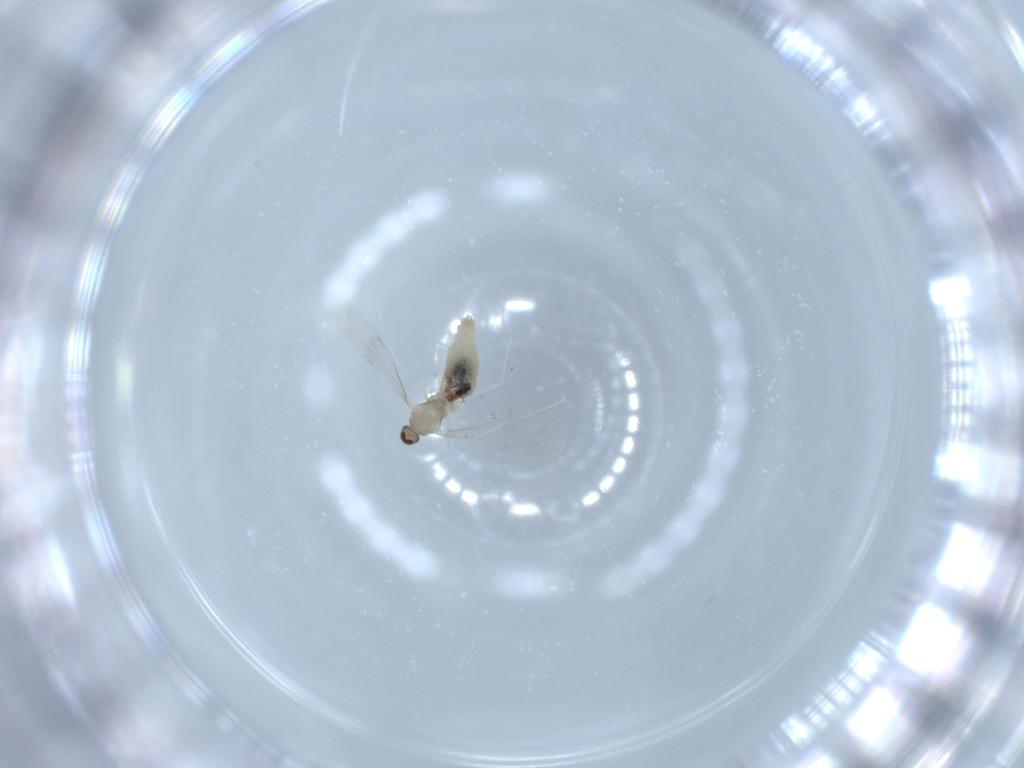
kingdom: Animalia
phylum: Arthropoda
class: Insecta
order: Diptera
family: Cecidomyiidae
